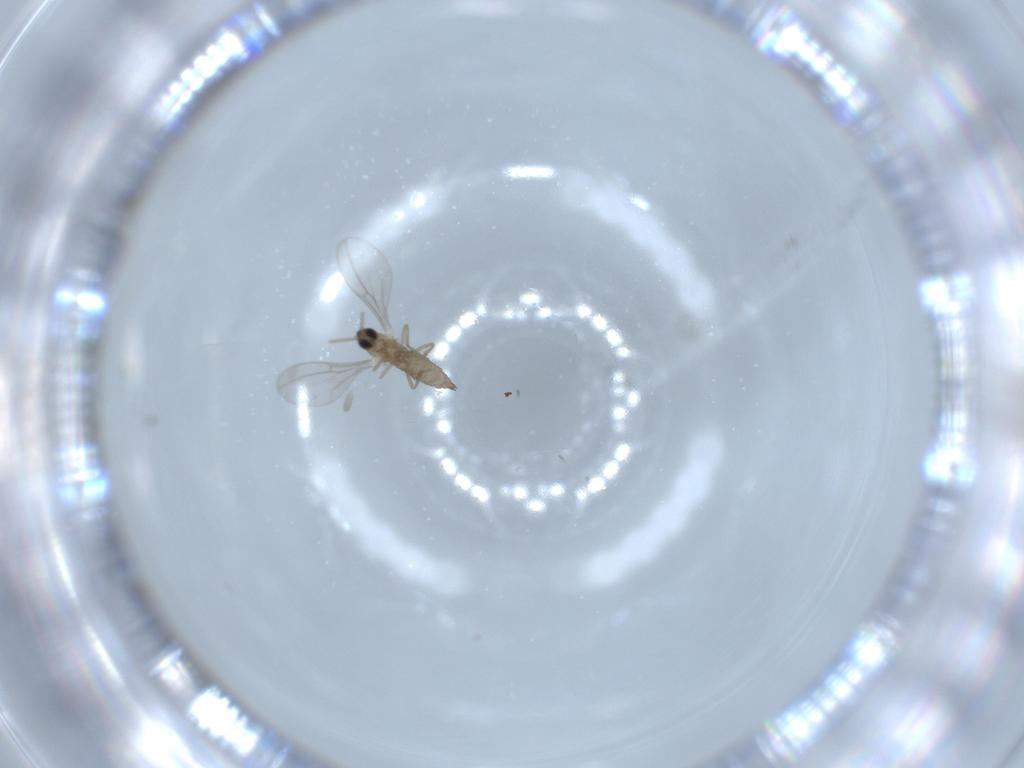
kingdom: Animalia
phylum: Arthropoda
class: Insecta
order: Diptera
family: Cecidomyiidae
